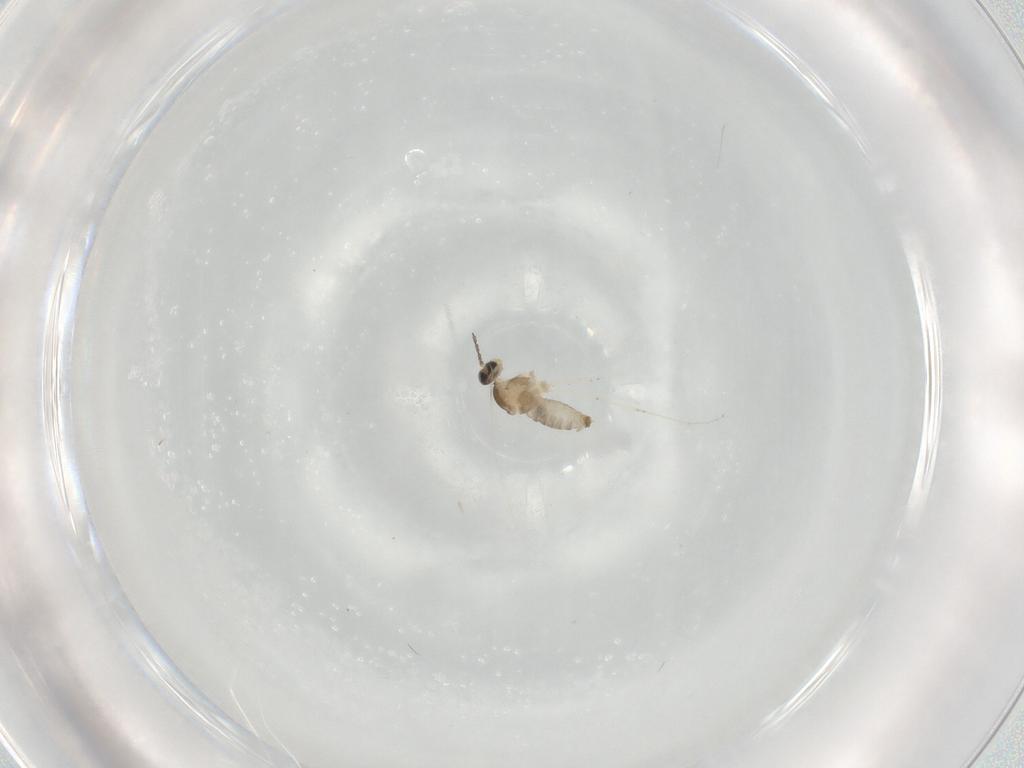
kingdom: Animalia
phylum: Arthropoda
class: Insecta
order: Diptera
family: Cecidomyiidae
